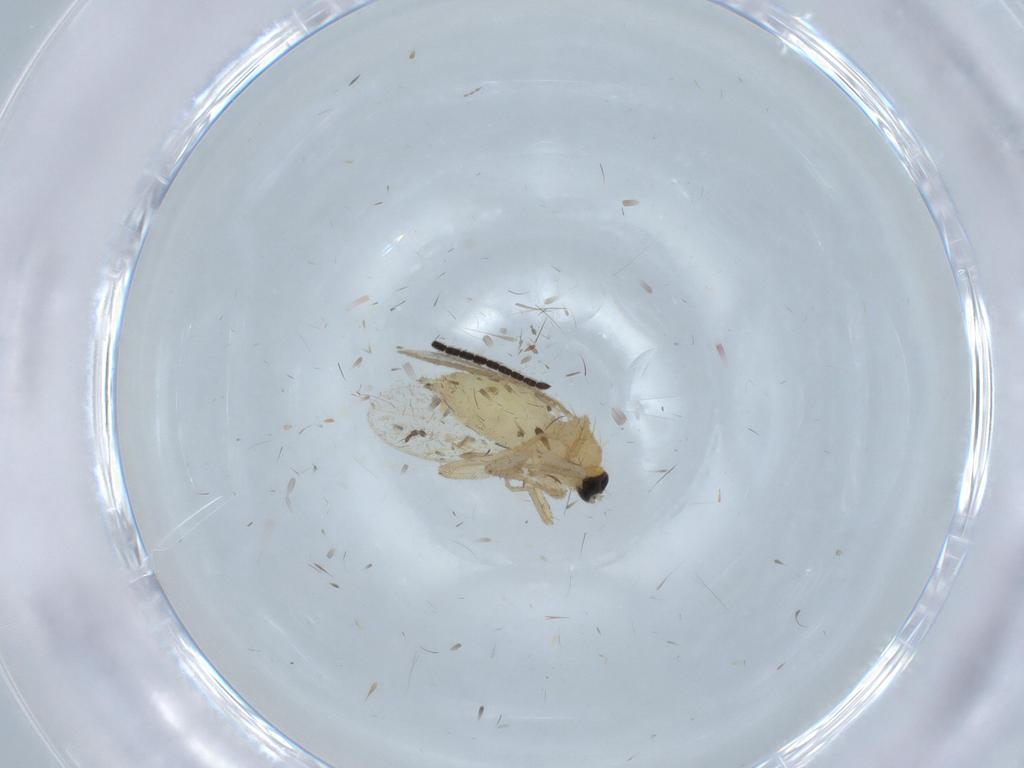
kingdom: Animalia
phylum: Arthropoda
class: Insecta
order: Diptera
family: Hybotidae
